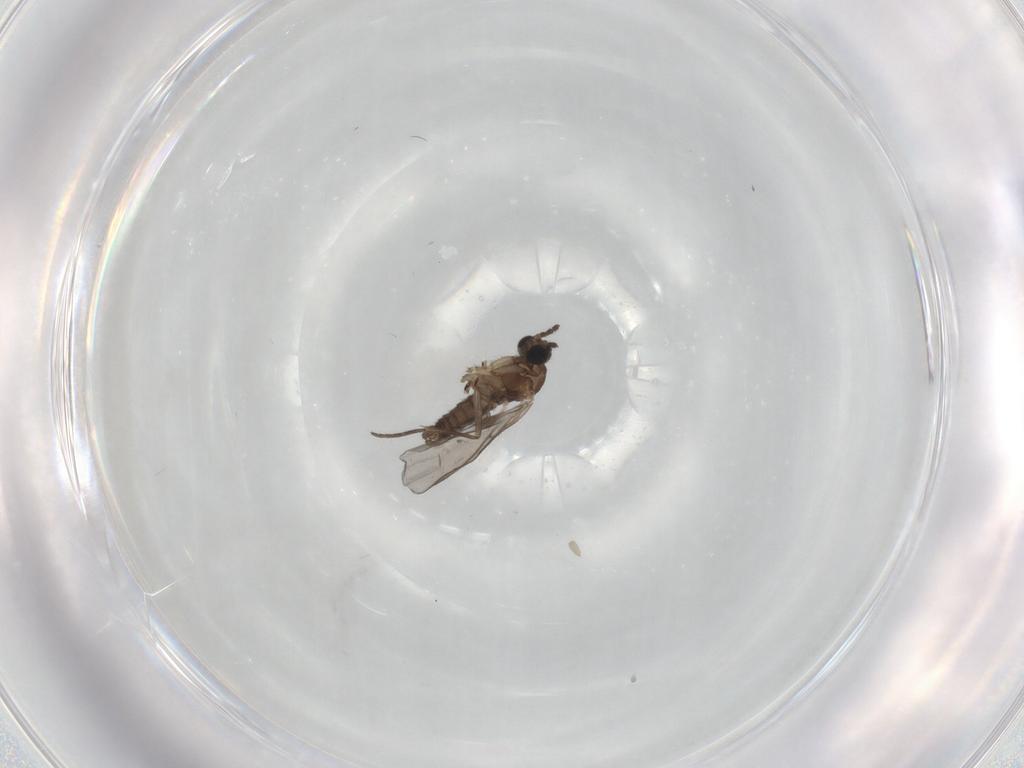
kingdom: Animalia
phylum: Arthropoda
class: Insecta
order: Diptera
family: Sciaridae
